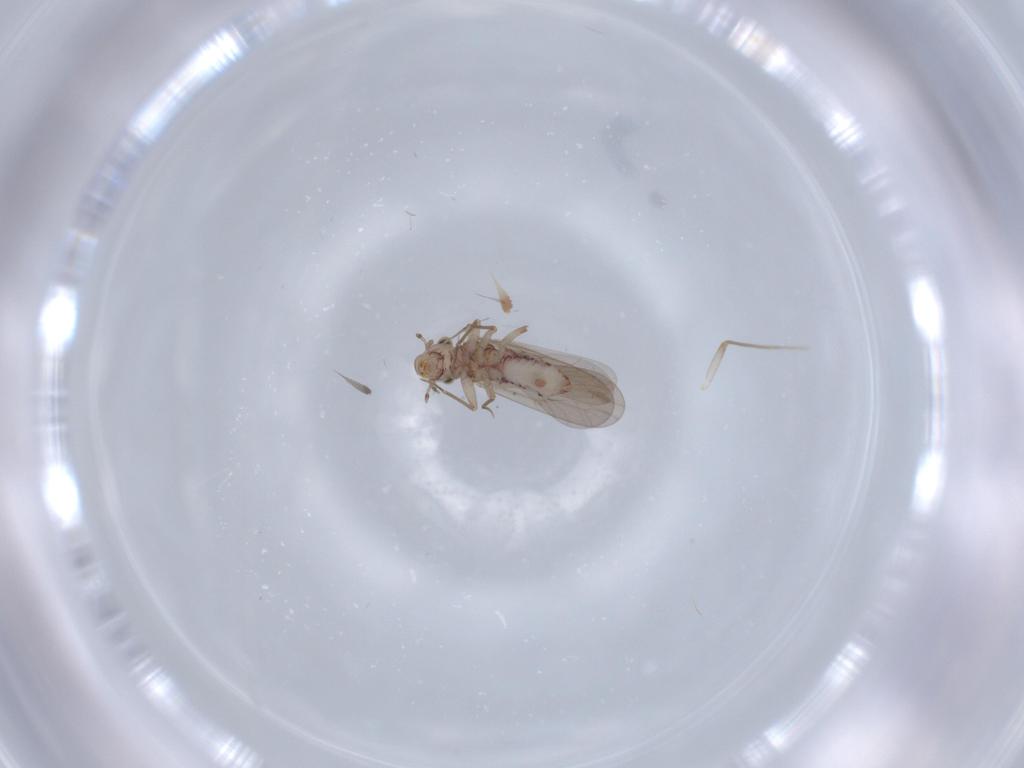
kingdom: Animalia
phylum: Arthropoda
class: Insecta
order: Psocodea
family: Lepidopsocidae
